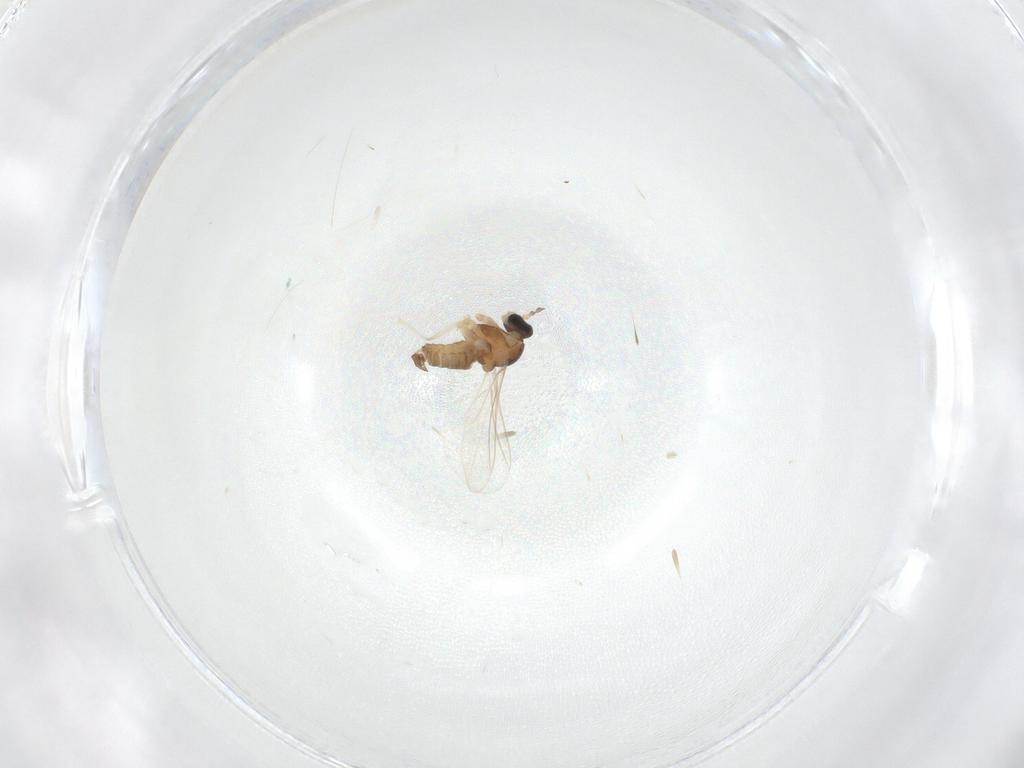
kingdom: Animalia
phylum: Arthropoda
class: Insecta
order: Diptera
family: Cecidomyiidae
